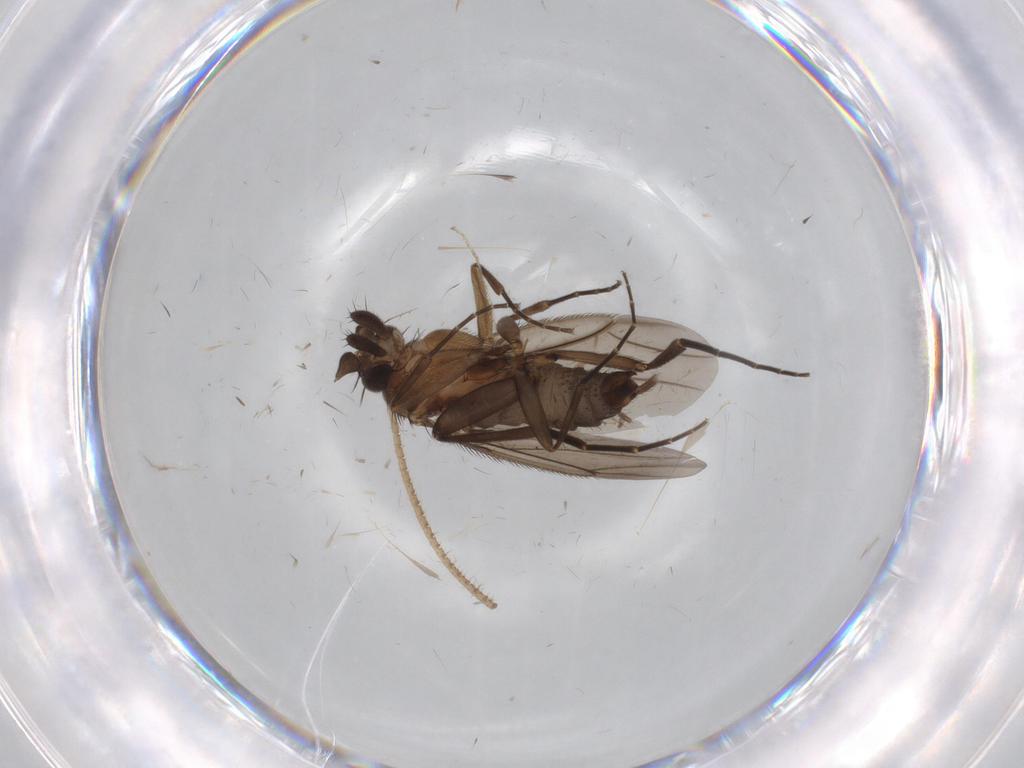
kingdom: Animalia
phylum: Arthropoda
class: Insecta
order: Diptera
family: Phoridae
